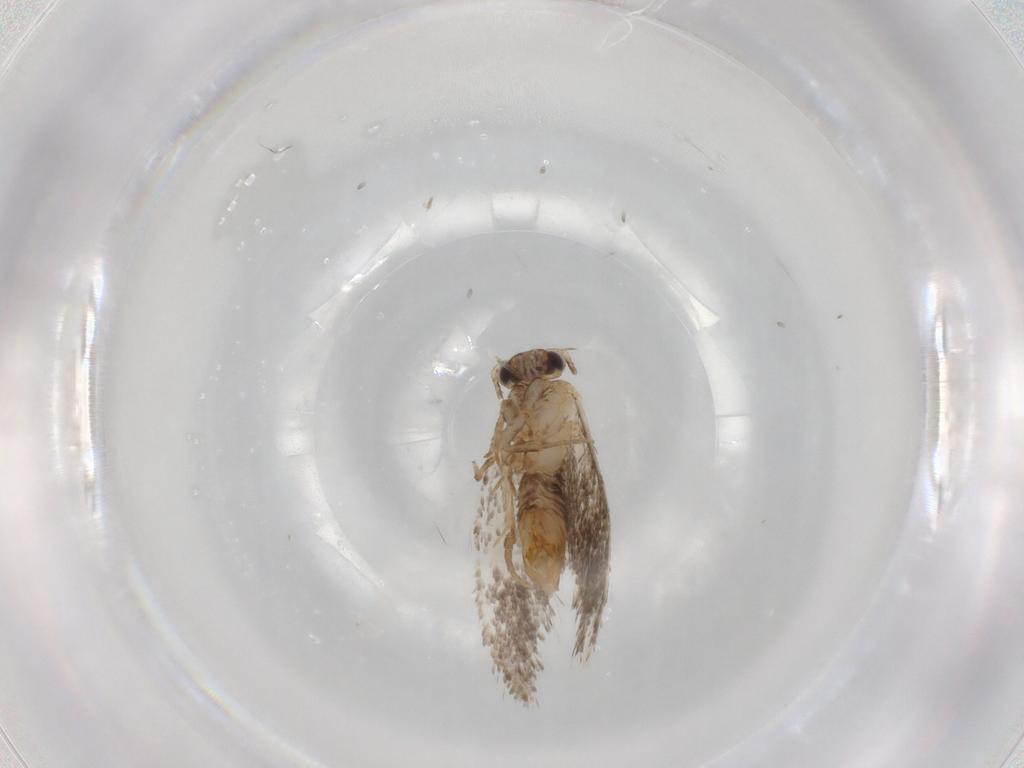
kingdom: Animalia
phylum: Arthropoda
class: Insecta
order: Lepidoptera
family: Tineidae
